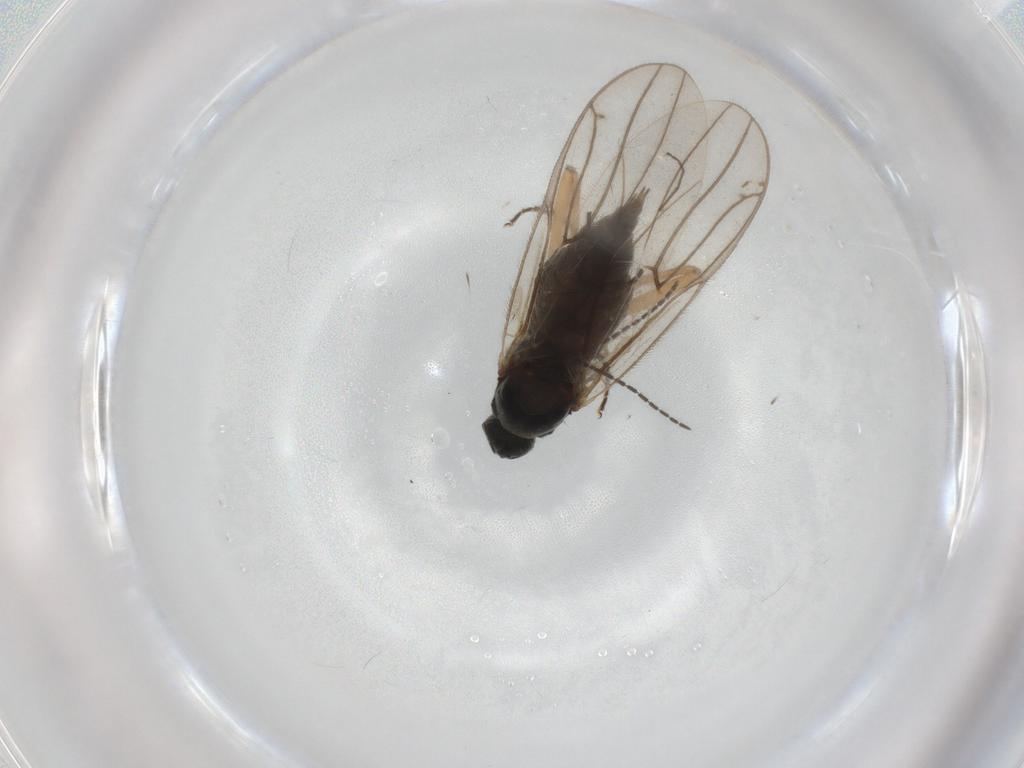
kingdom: Animalia
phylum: Arthropoda
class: Insecta
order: Diptera
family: Hybotidae
